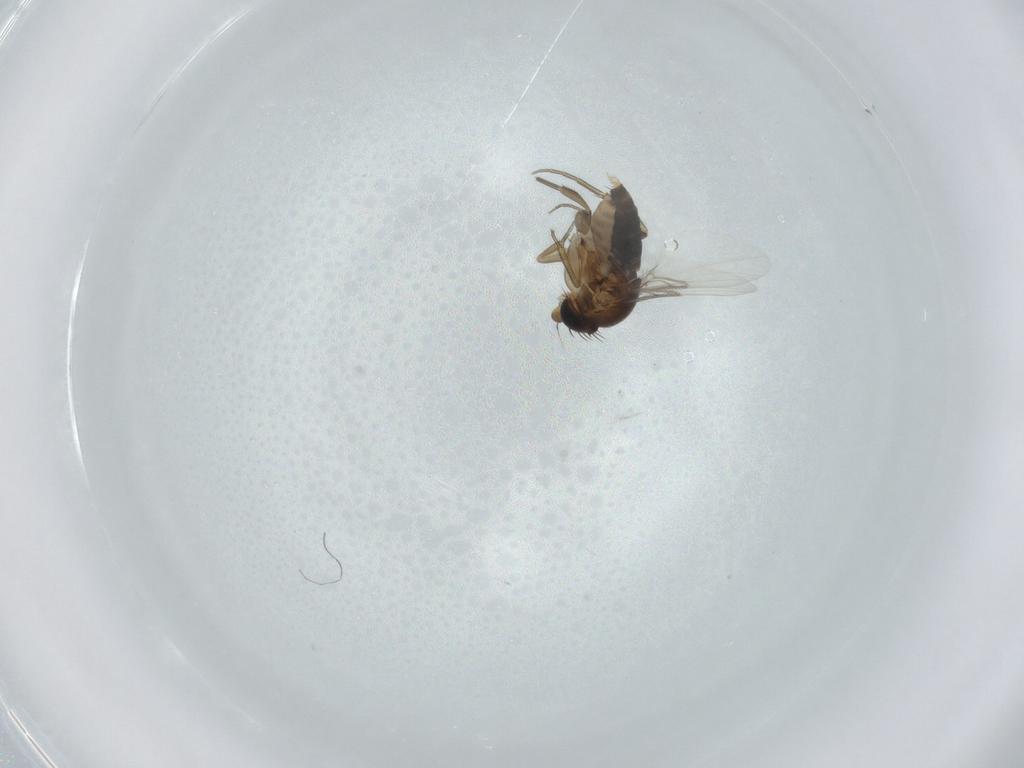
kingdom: Animalia
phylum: Arthropoda
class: Insecta
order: Diptera
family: Phoridae
